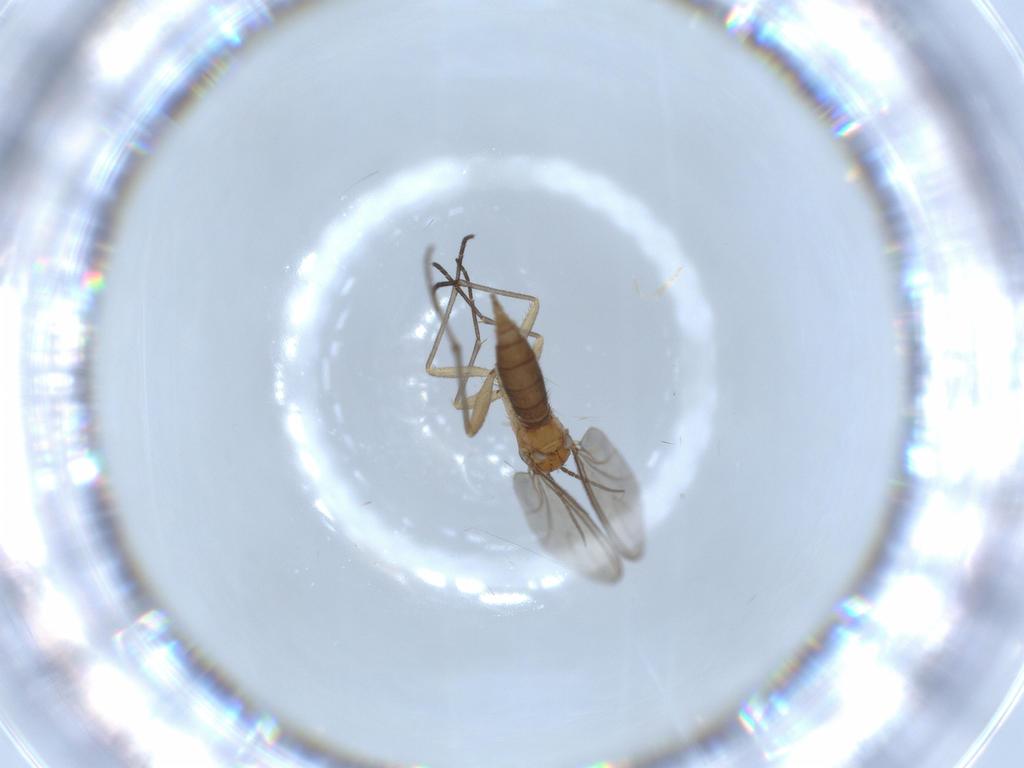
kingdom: Animalia
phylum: Arthropoda
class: Insecta
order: Diptera
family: Sciaridae
